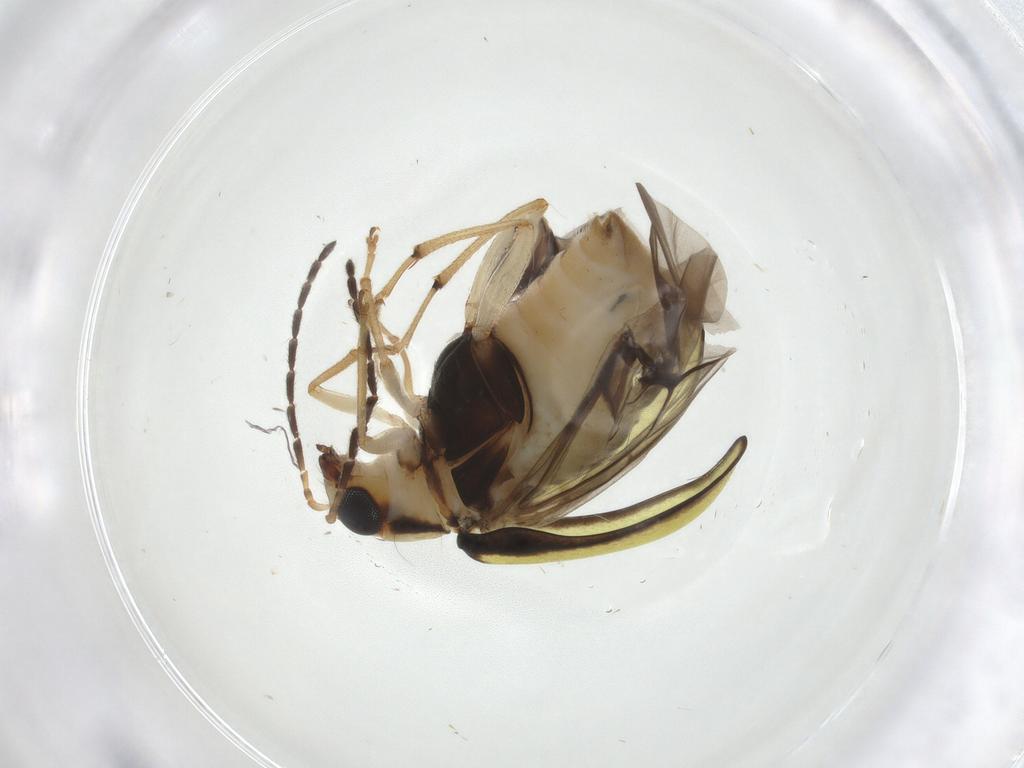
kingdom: Animalia
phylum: Arthropoda
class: Insecta
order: Coleoptera
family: Chrysomelidae
